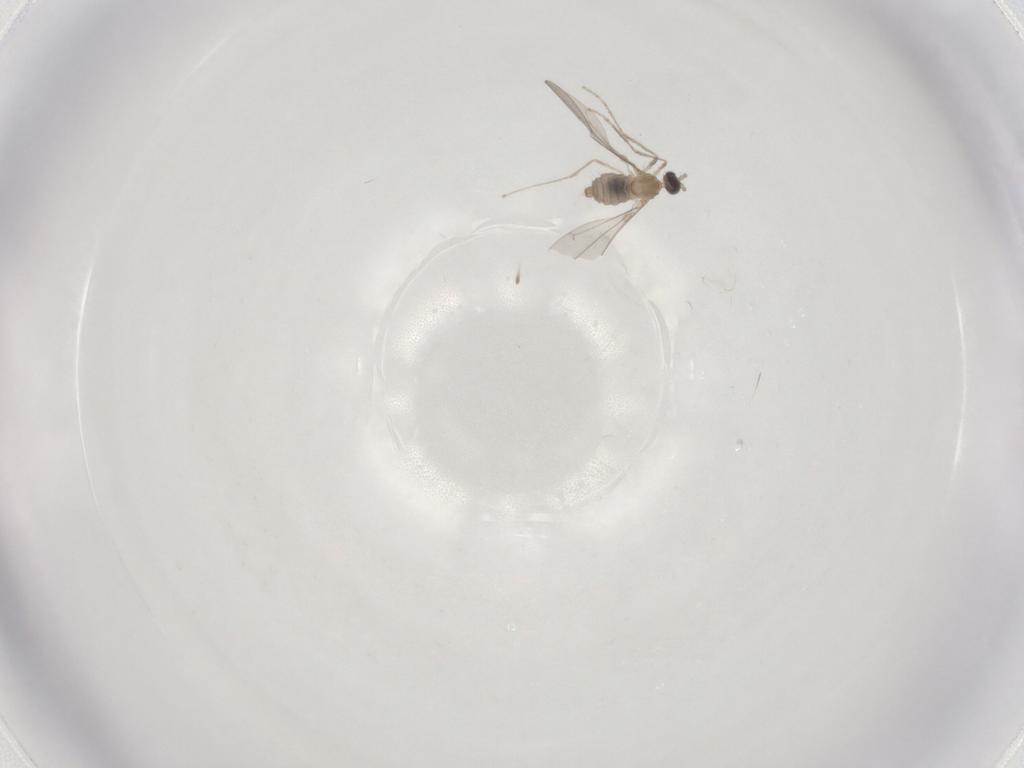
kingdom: Animalia
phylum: Arthropoda
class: Insecta
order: Diptera
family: Cecidomyiidae
